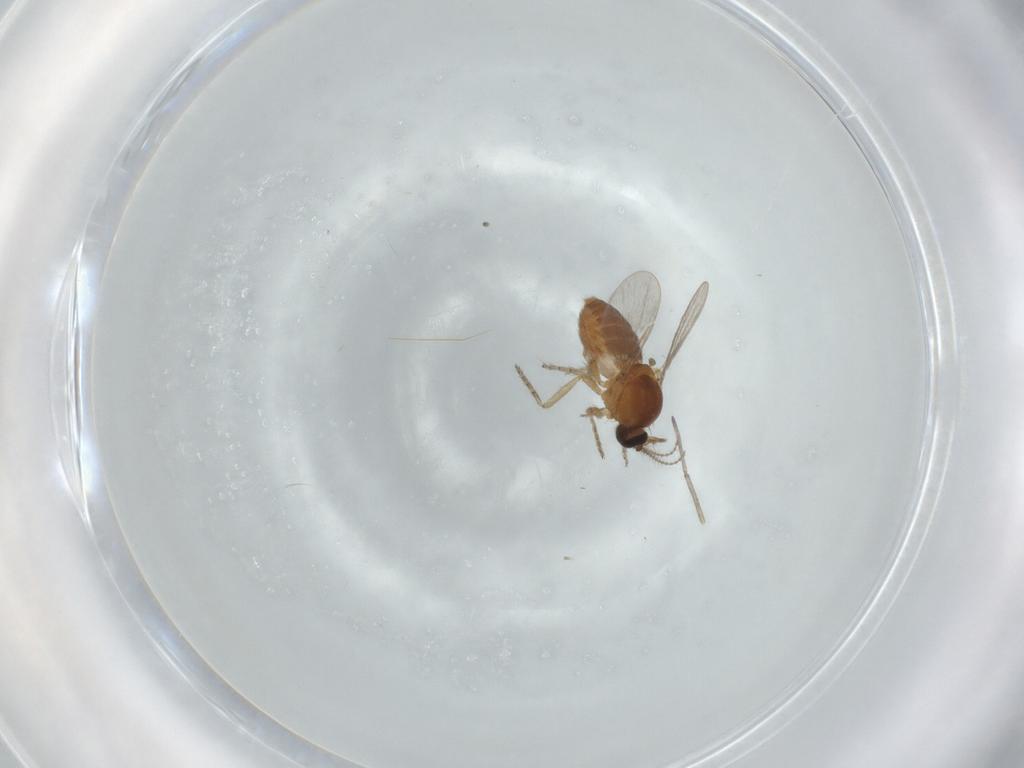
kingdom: Animalia
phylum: Arthropoda
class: Insecta
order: Diptera
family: Ceratopogonidae
